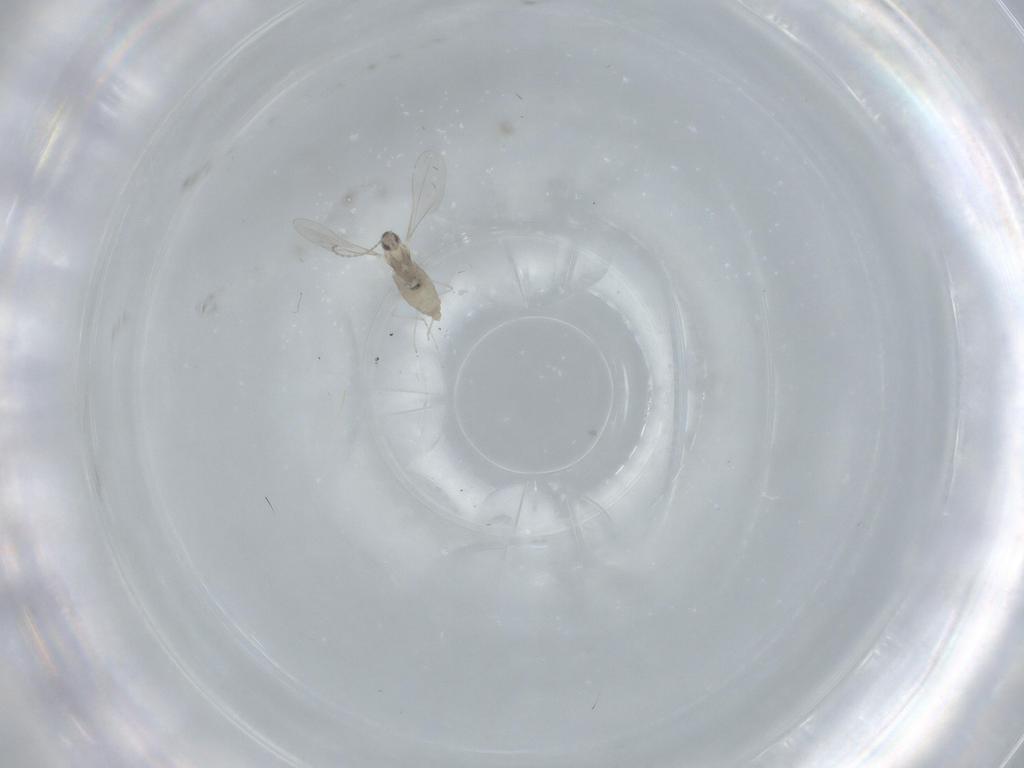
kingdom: Animalia
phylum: Arthropoda
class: Insecta
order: Diptera
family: Cecidomyiidae
